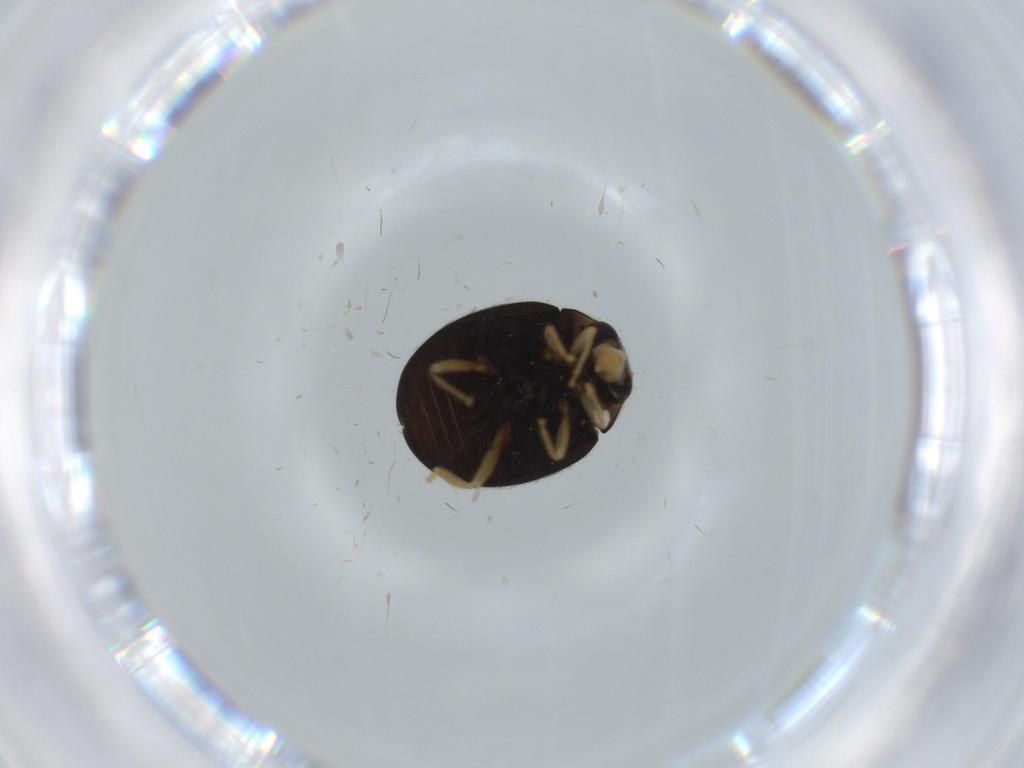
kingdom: Animalia
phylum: Arthropoda
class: Insecta
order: Coleoptera
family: Coccinellidae
